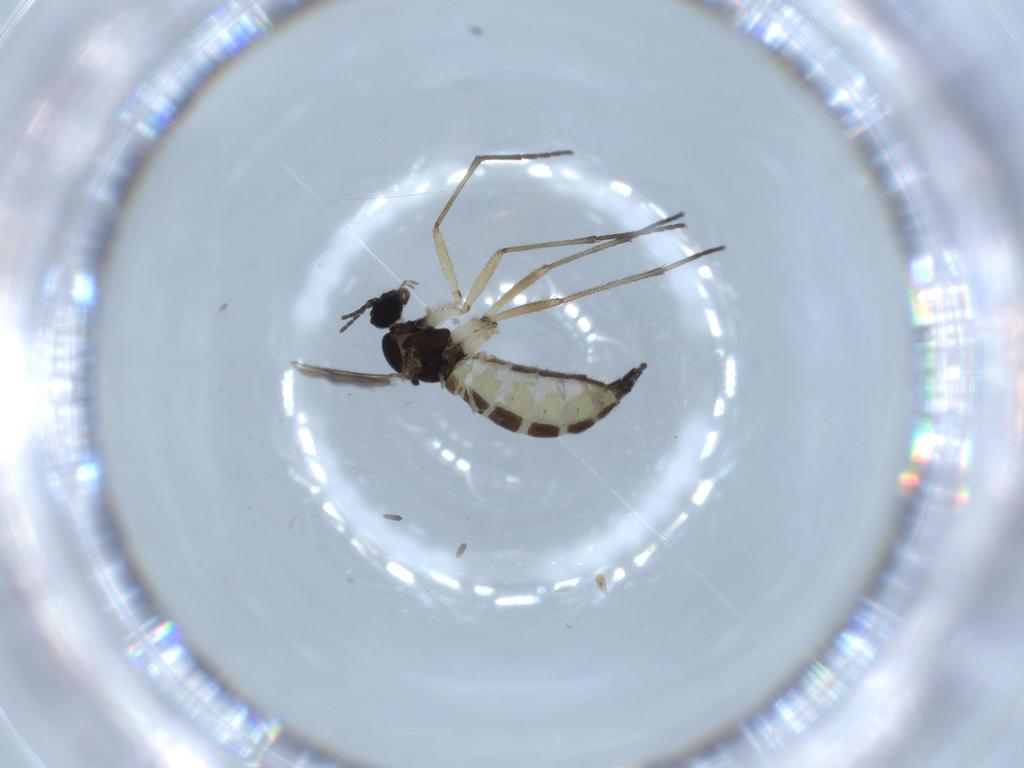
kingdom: Animalia
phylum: Arthropoda
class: Insecta
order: Diptera
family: Sciaridae
